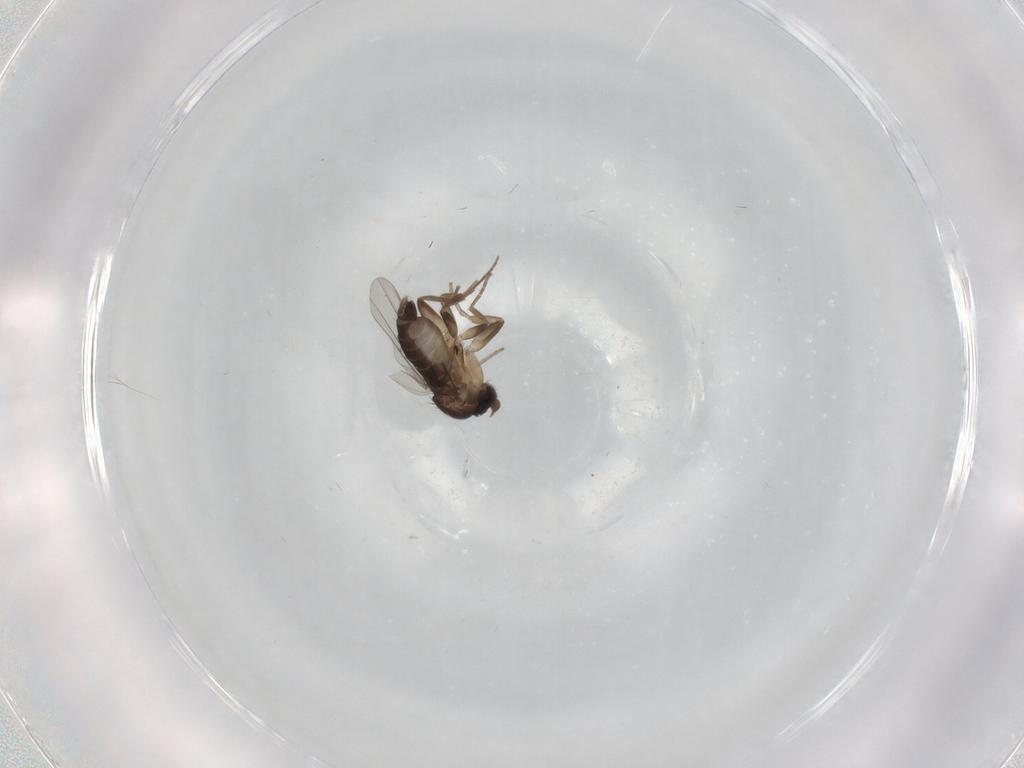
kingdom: Animalia
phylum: Arthropoda
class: Insecta
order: Diptera
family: Phoridae
